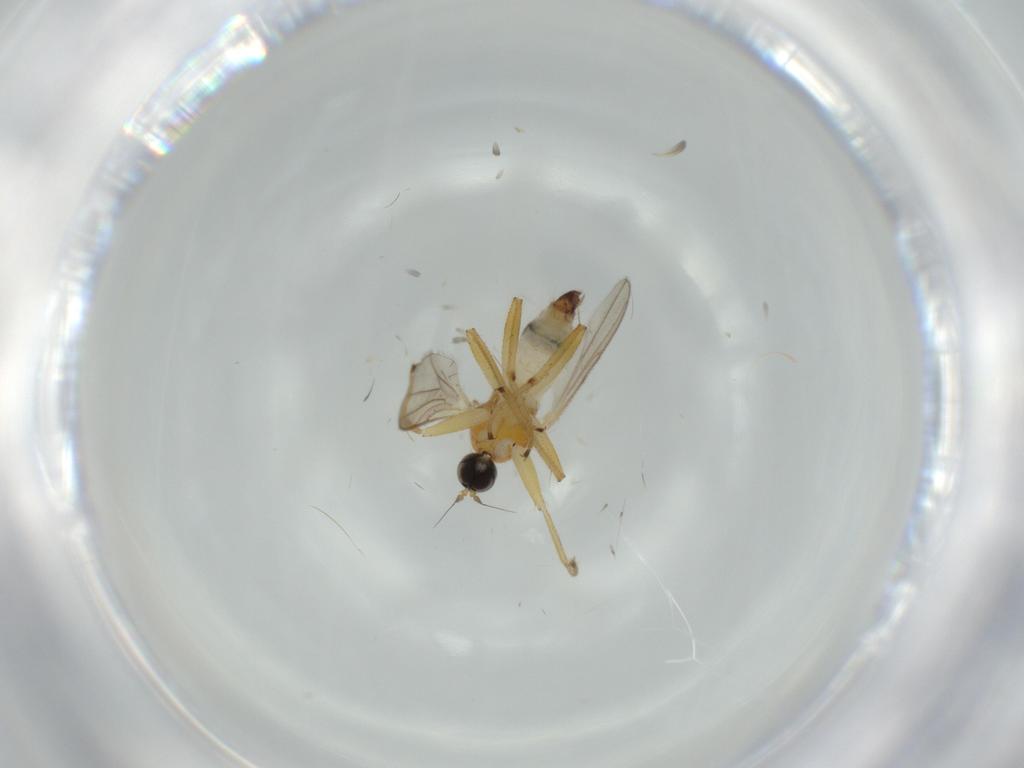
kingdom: Animalia
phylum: Arthropoda
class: Insecta
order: Diptera
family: Hybotidae
